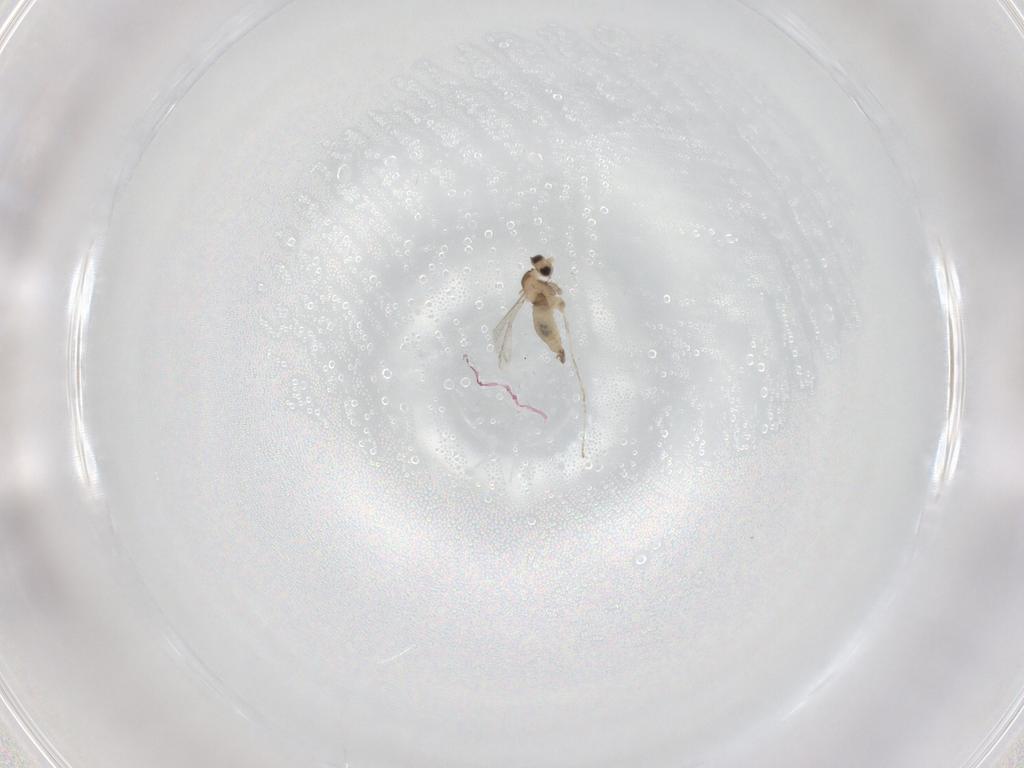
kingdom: Animalia
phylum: Arthropoda
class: Insecta
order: Diptera
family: Cecidomyiidae
